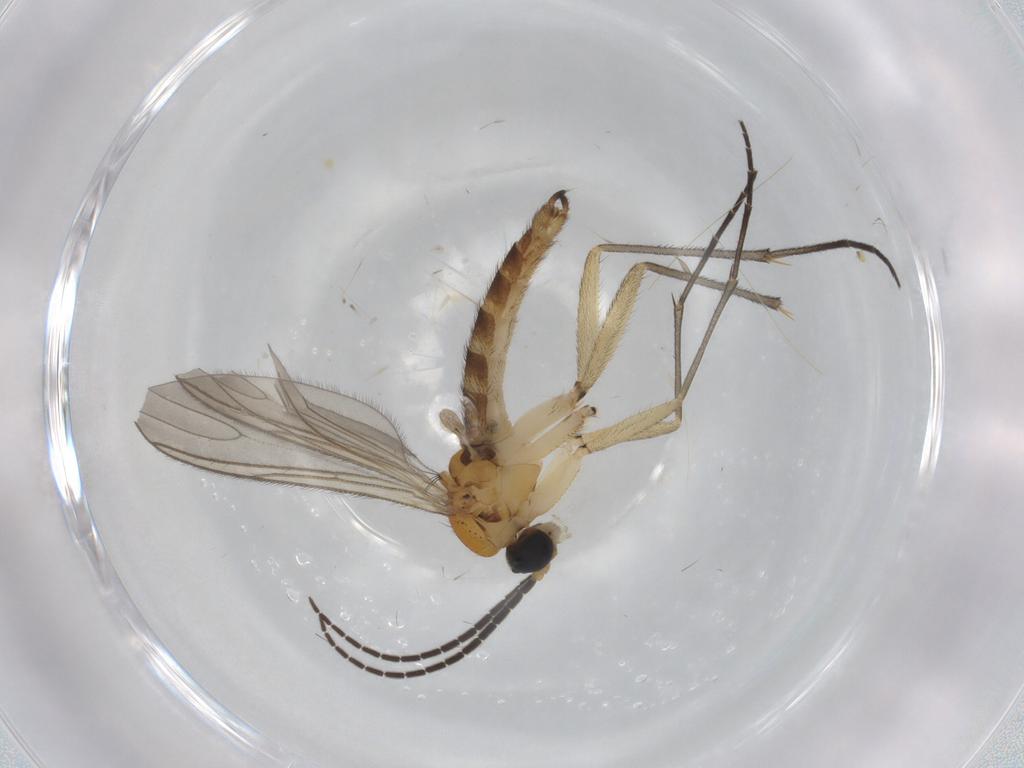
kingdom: Animalia
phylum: Arthropoda
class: Insecta
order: Diptera
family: Sciaridae
